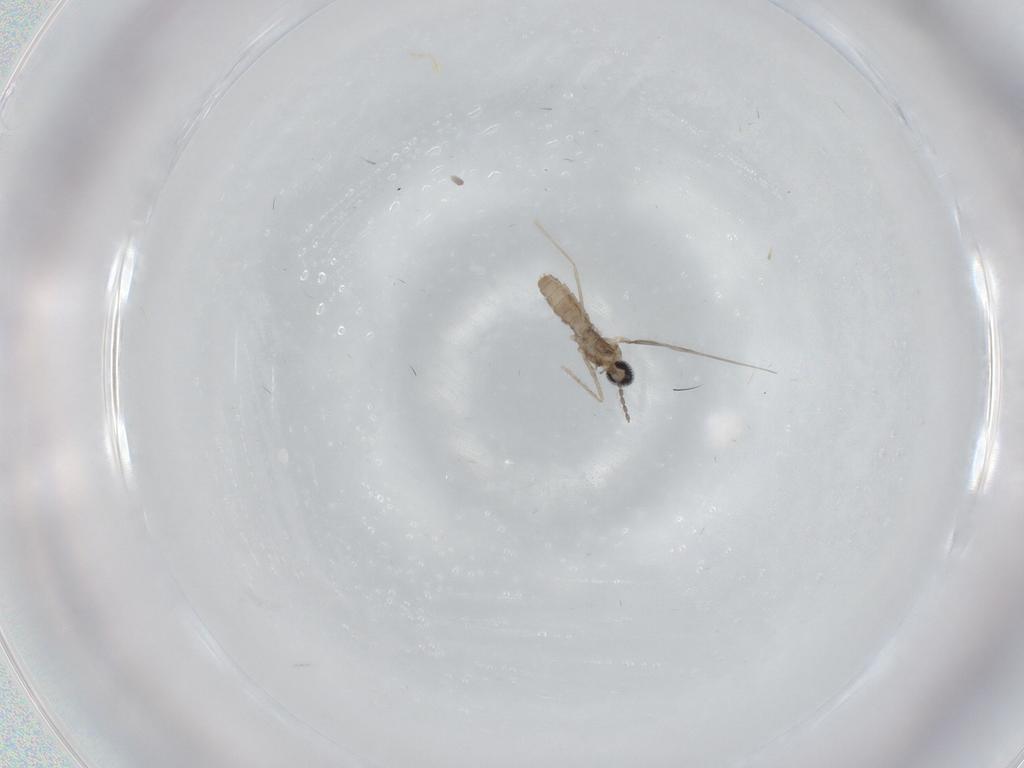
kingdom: Animalia
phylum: Arthropoda
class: Insecta
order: Diptera
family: Cecidomyiidae
